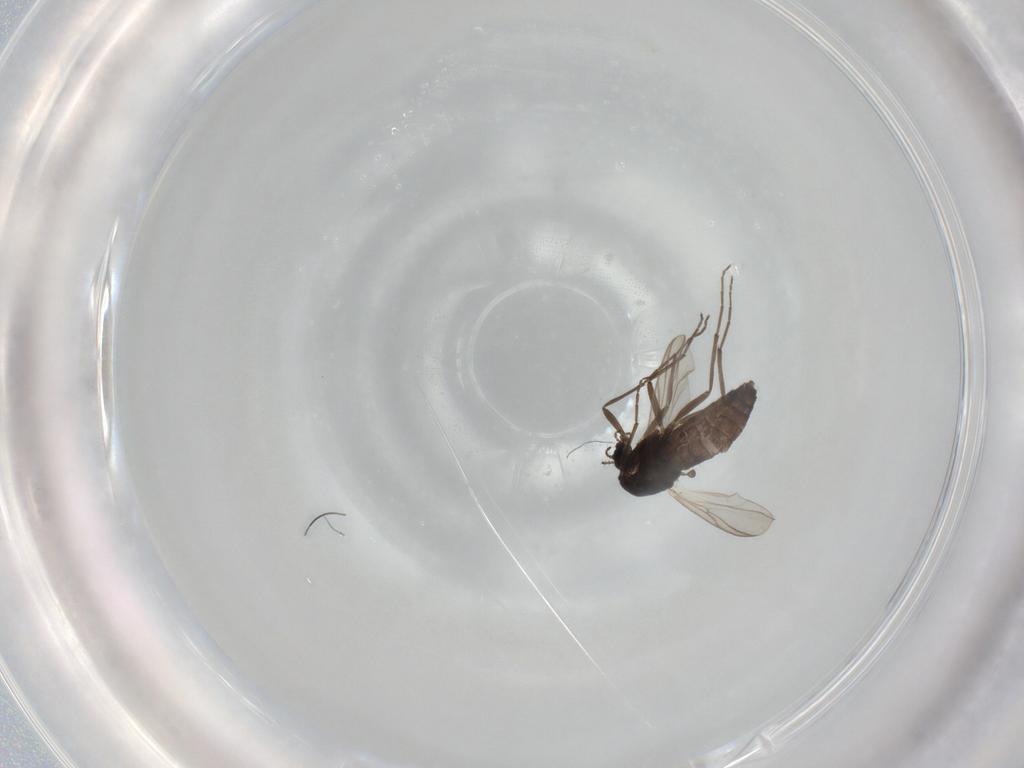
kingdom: Animalia
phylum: Arthropoda
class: Insecta
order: Diptera
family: Chironomidae
